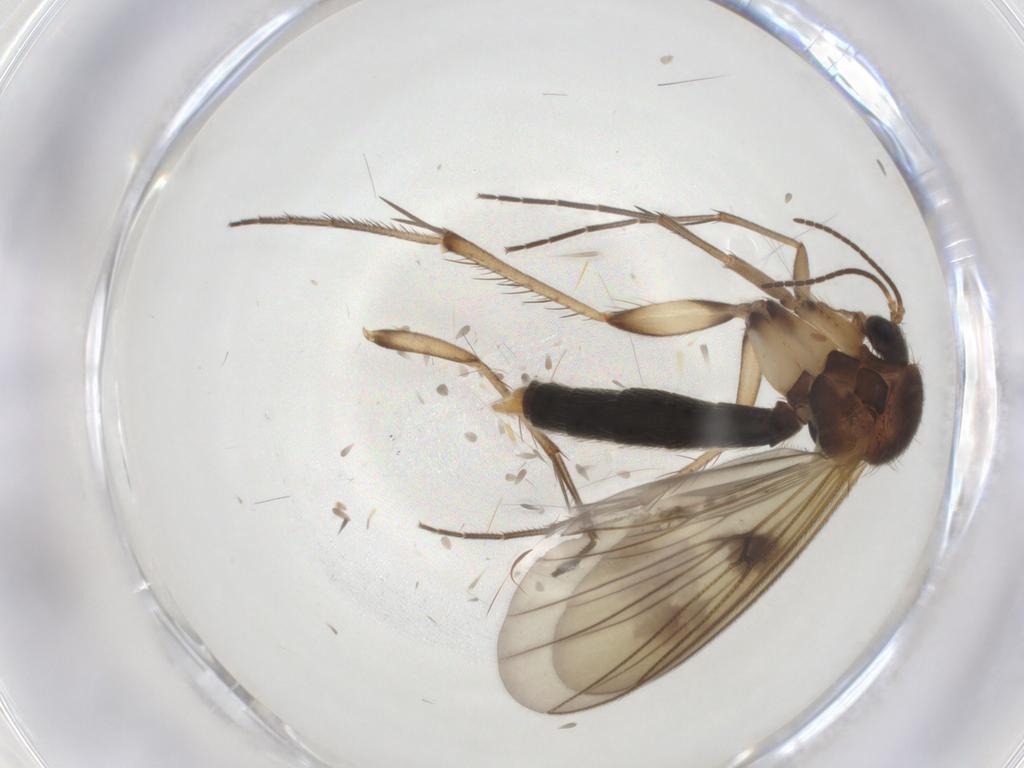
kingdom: Animalia
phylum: Arthropoda
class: Insecta
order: Diptera
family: Mycetophilidae
